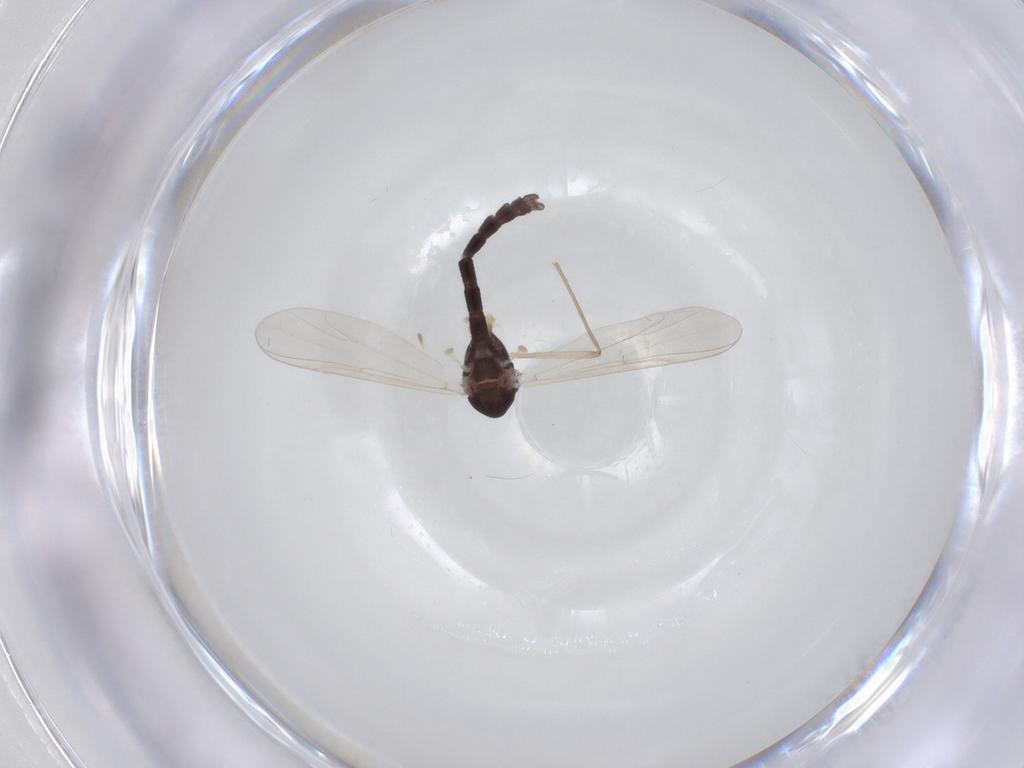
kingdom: Animalia
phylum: Arthropoda
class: Insecta
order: Diptera
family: Chironomidae
